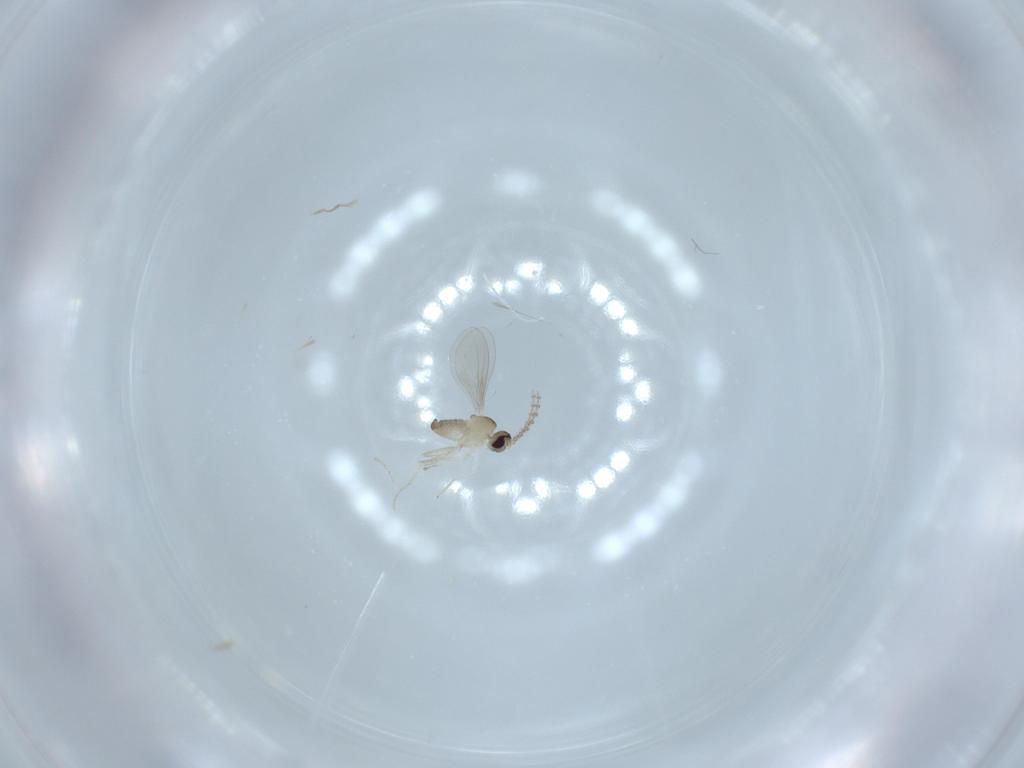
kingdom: Animalia
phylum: Arthropoda
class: Insecta
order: Diptera
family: Cecidomyiidae
